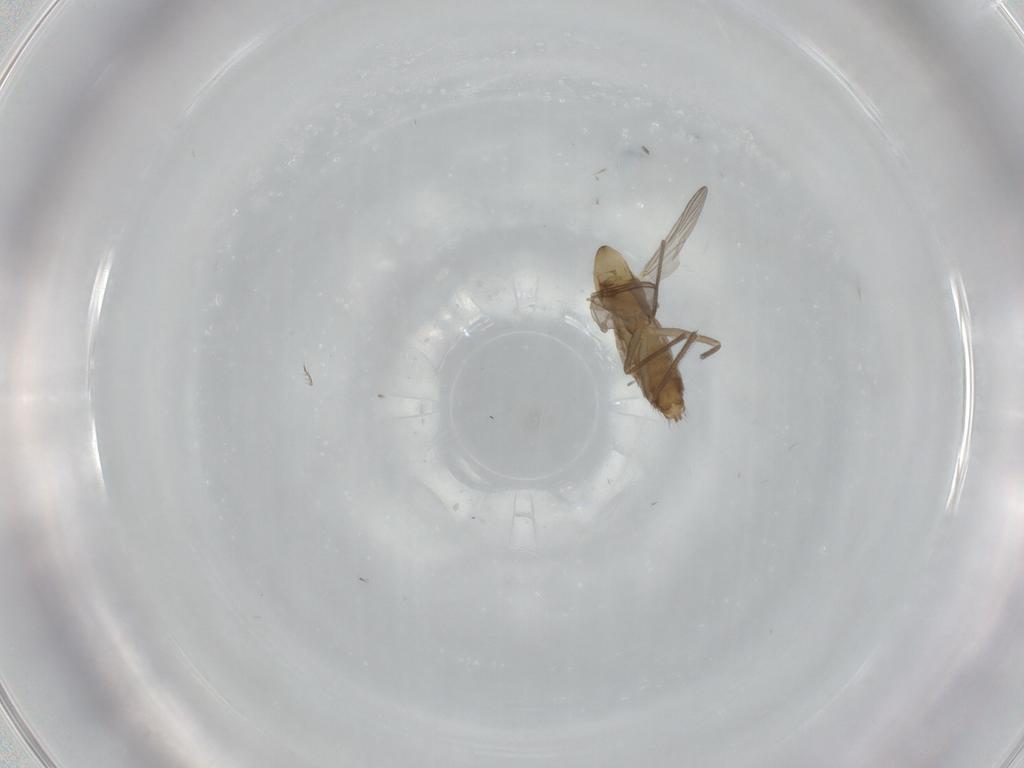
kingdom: Animalia
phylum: Arthropoda
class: Insecta
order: Diptera
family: Chironomidae
